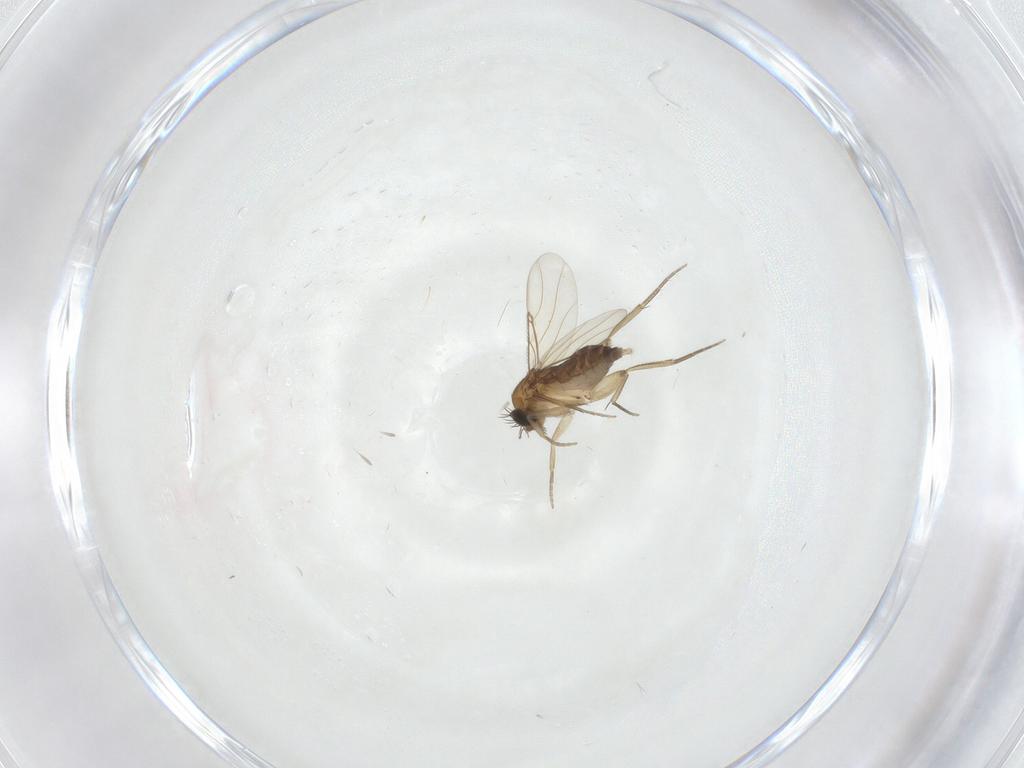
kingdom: Animalia
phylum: Arthropoda
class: Insecta
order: Diptera
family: Phoridae
